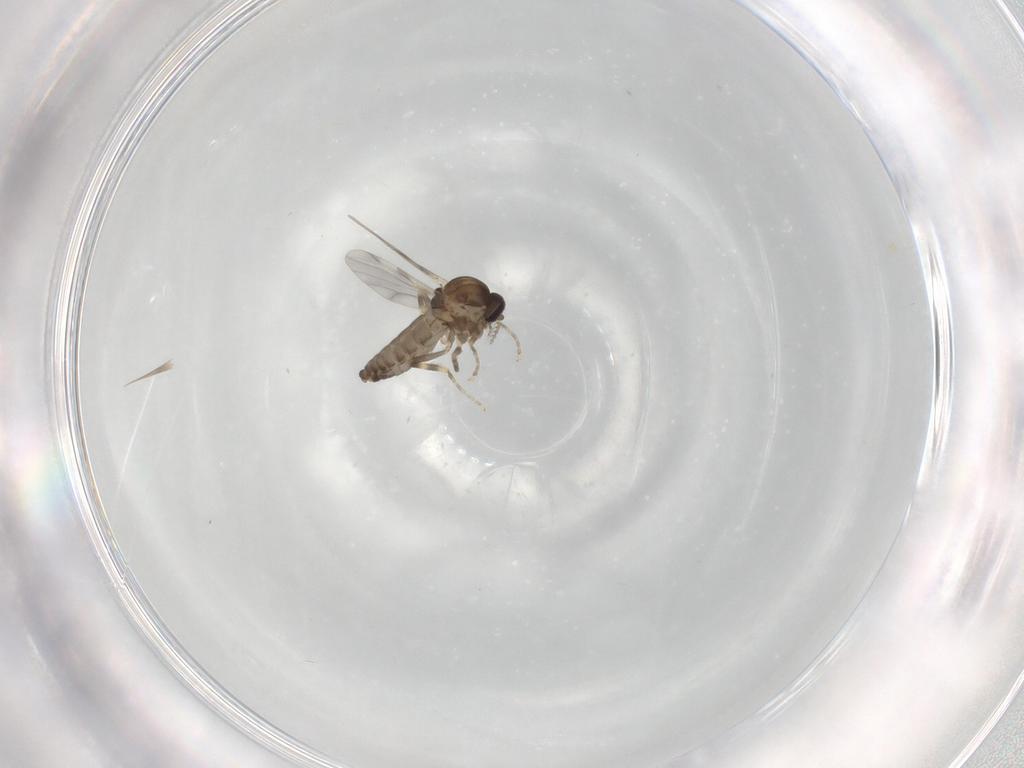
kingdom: Animalia
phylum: Arthropoda
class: Insecta
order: Diptera
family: Ceratopogonidae
